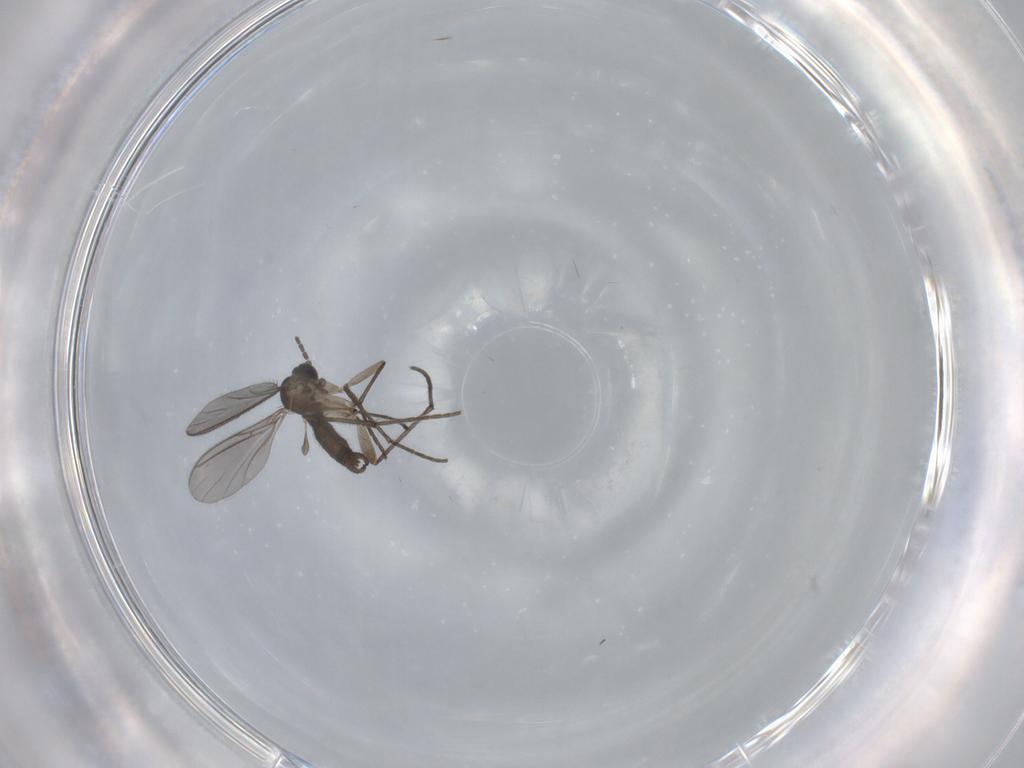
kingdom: Animalia
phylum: Arthropoda
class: Insecta
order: Diptera
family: Sciaridae
